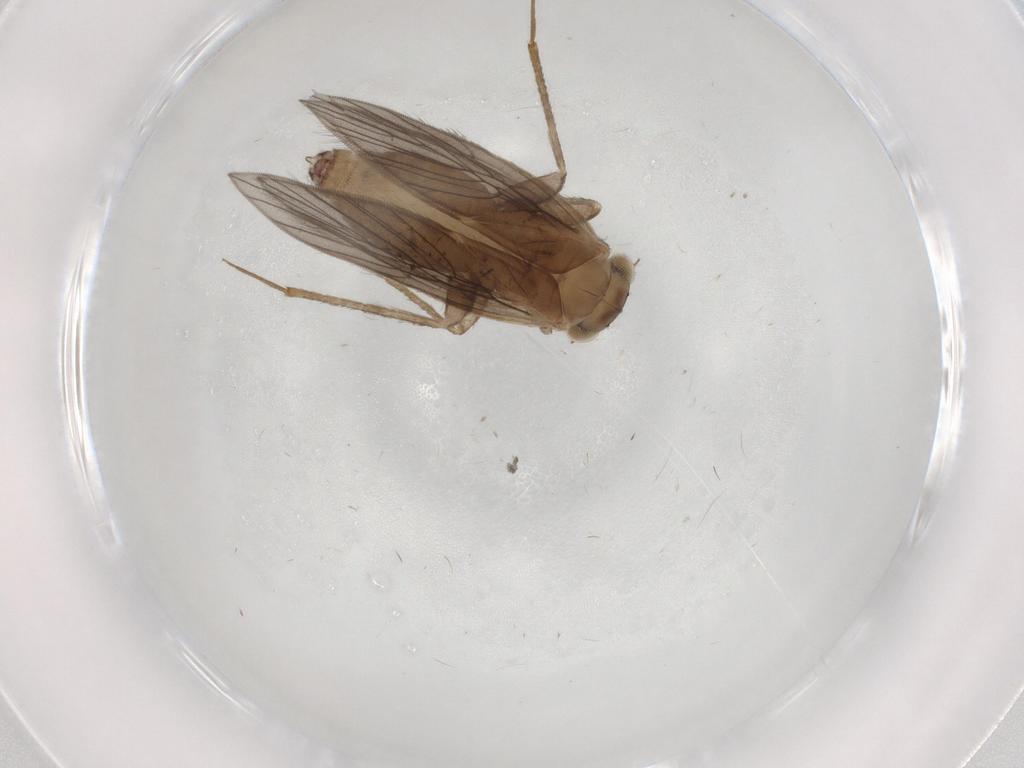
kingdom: Animalia
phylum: Arthropoda
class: Insecta
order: Psocodea
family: Lepidopsocidae
